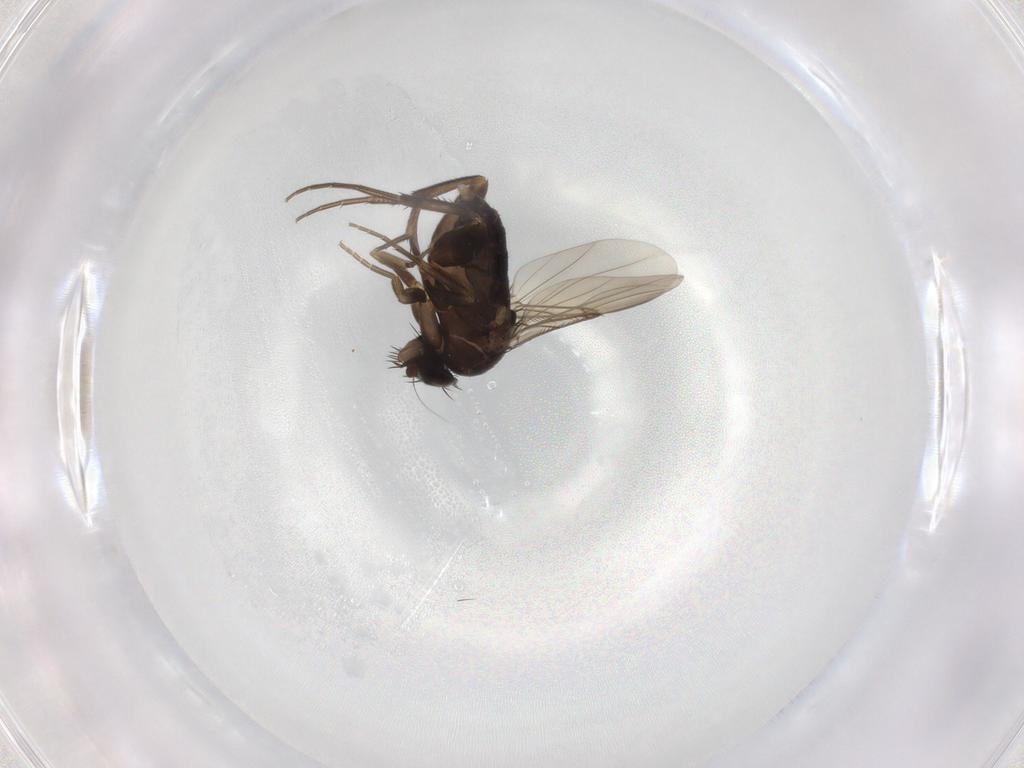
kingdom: Animalia
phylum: Arthropoda
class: Insecta
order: Diptera
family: Phoridae
